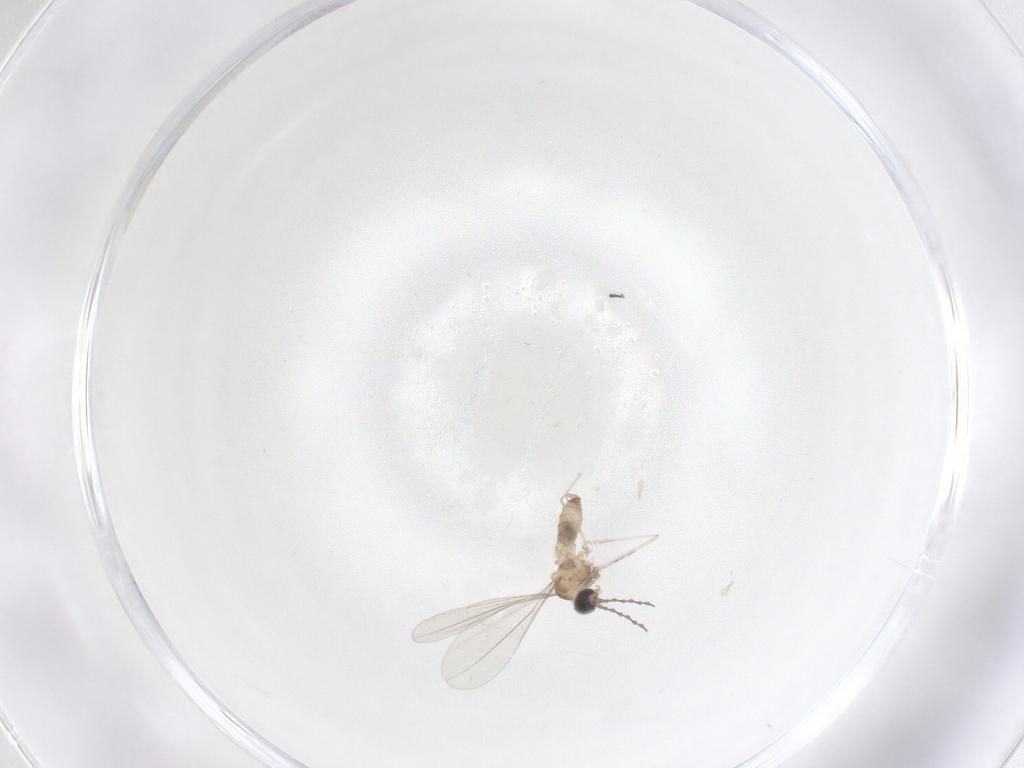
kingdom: Animalia
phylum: Arthropoda
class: Insecta
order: Diptera
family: Cecidomyiidae
